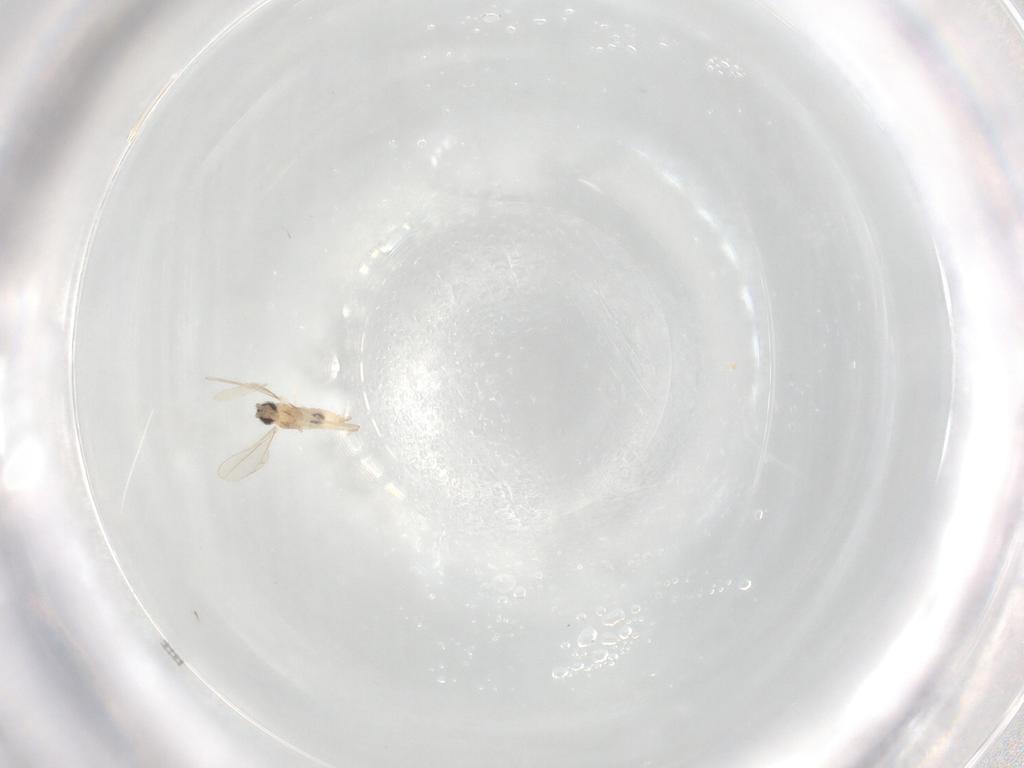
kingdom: Animalia
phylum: Arthropoda
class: Insecta
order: Diptera
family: Cecidomyiidae
